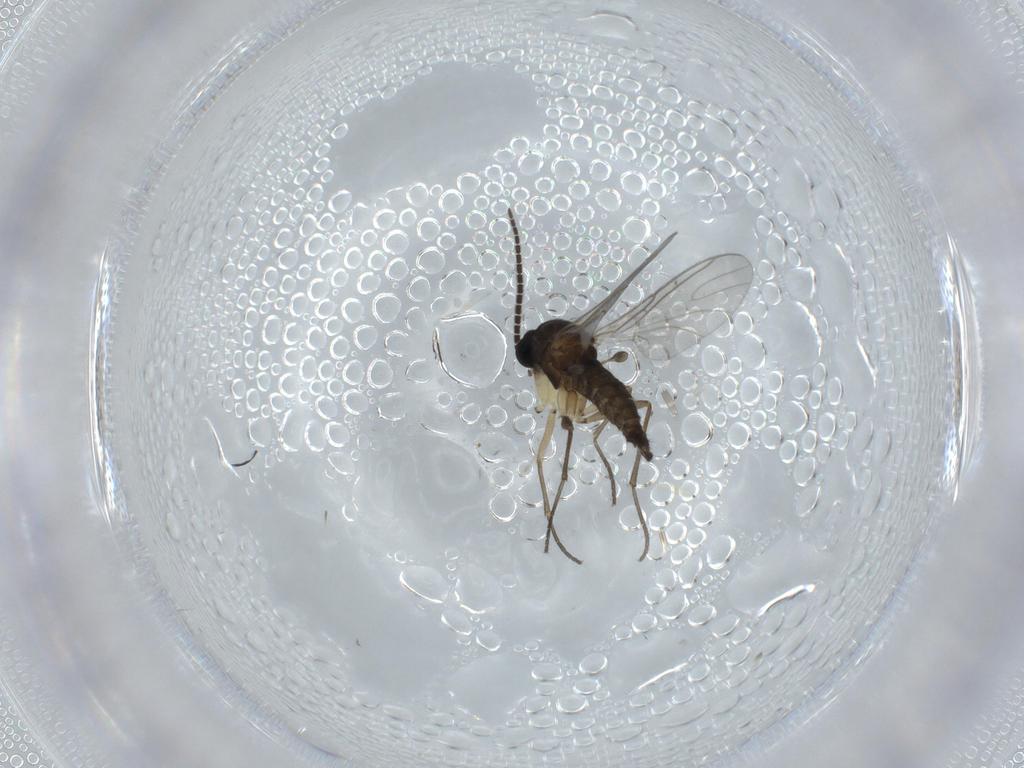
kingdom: Animalia
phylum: Arthropoda
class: Insecta
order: Diptera
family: Sciaridae
